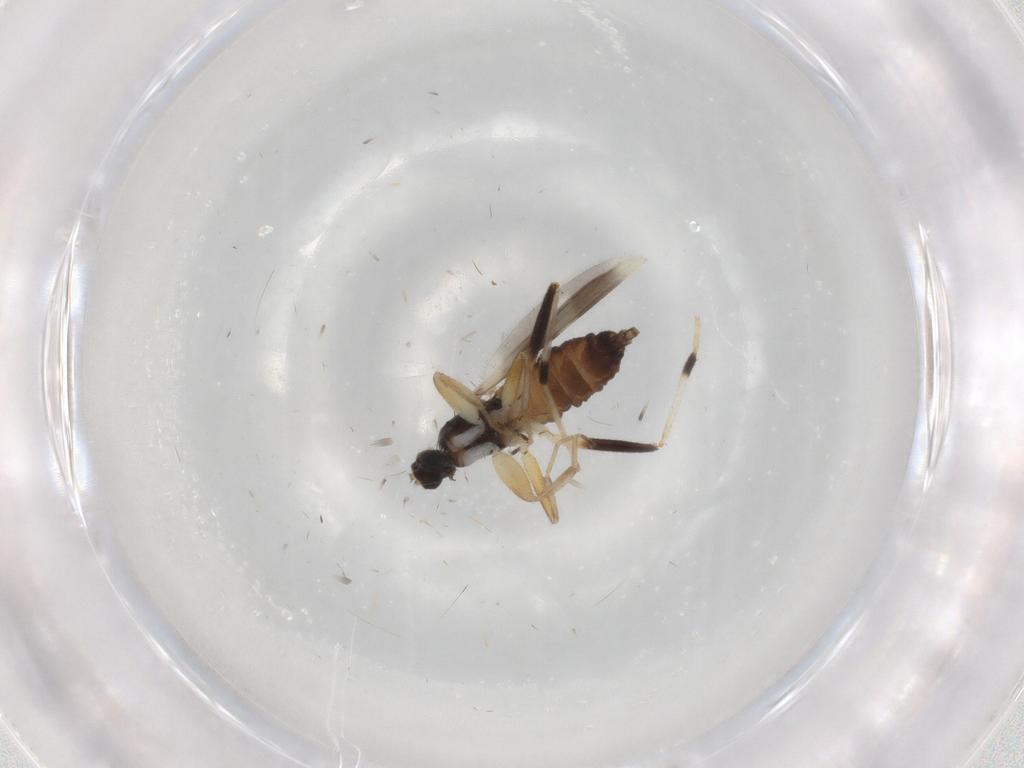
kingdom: Animalia
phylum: Arthropoda
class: Insecta
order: Diptera
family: Hybotidae
